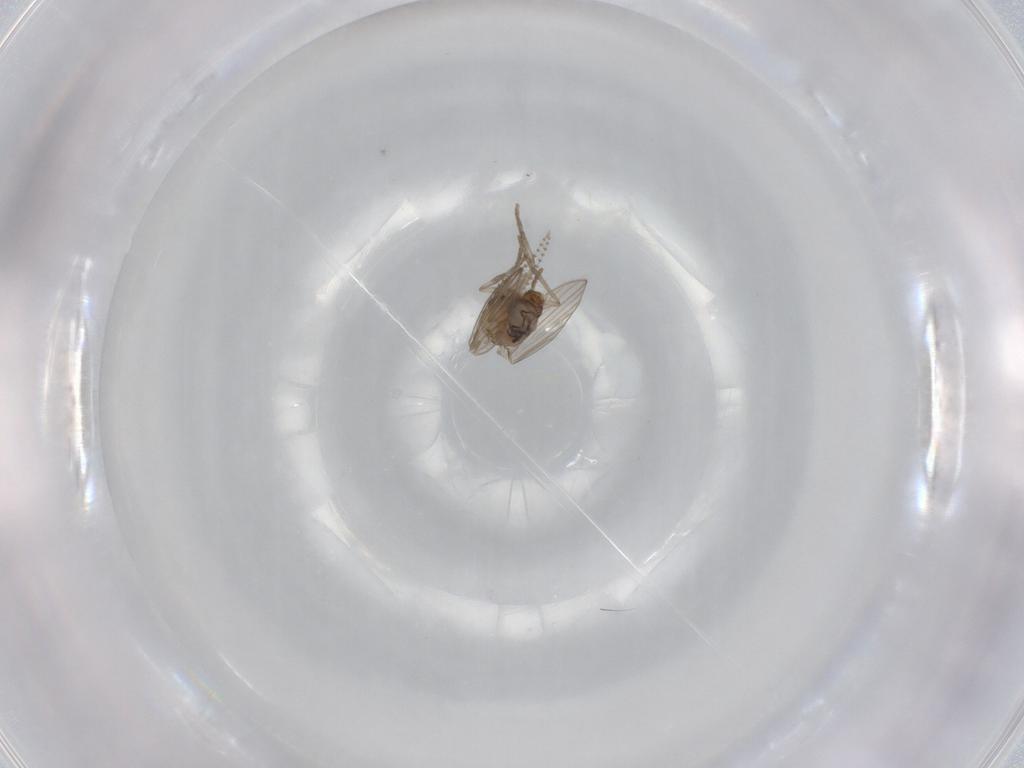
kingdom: Animalia
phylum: Arthropoda
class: Insecta
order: Diptera
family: Psychodidae
